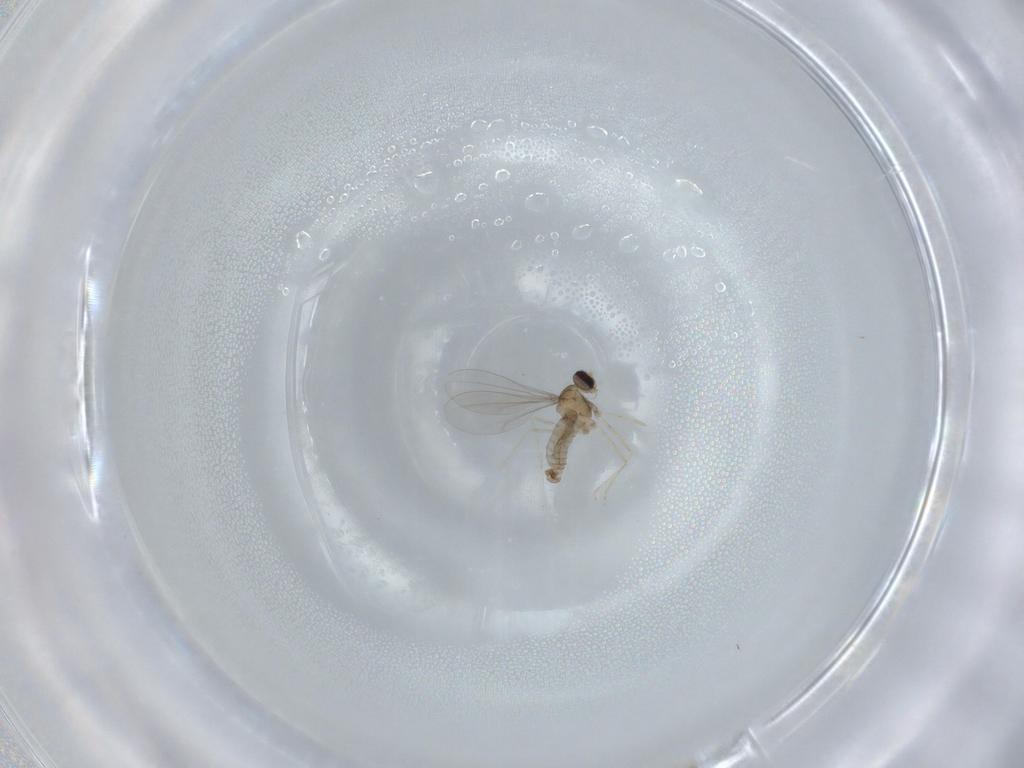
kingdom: Animalia
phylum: Arthropoda
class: Insecta
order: Diptera
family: Cecidomyiidae
